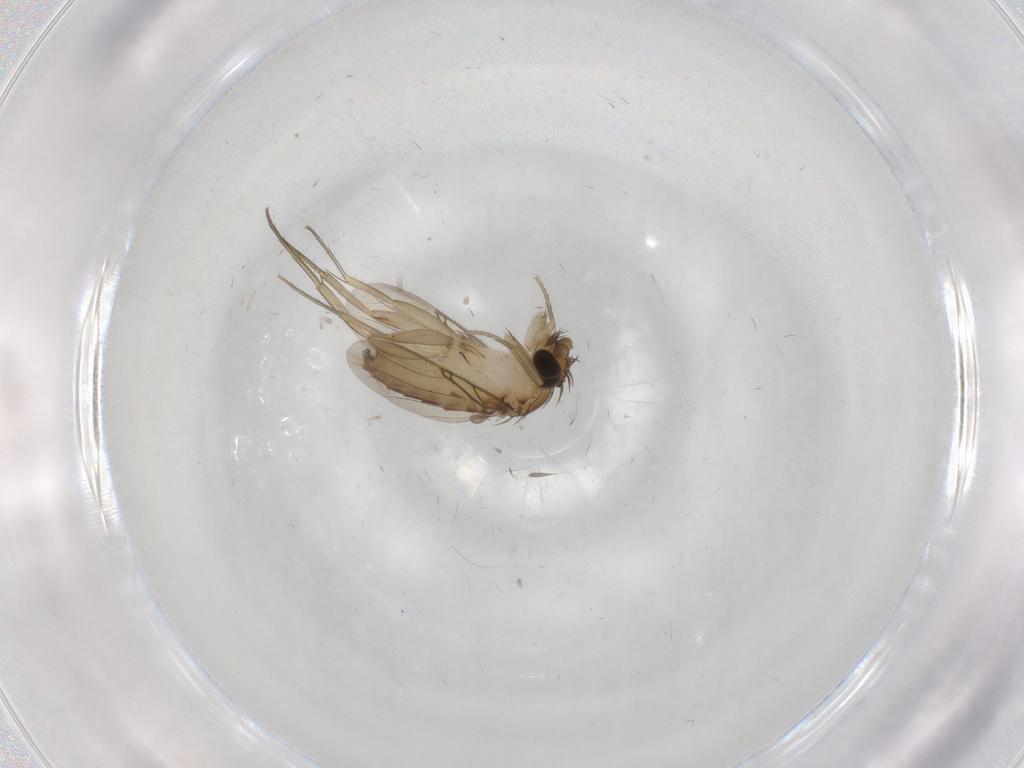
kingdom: Animalia
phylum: Arthropoda
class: Insecta
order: Diptera
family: Phoridae
